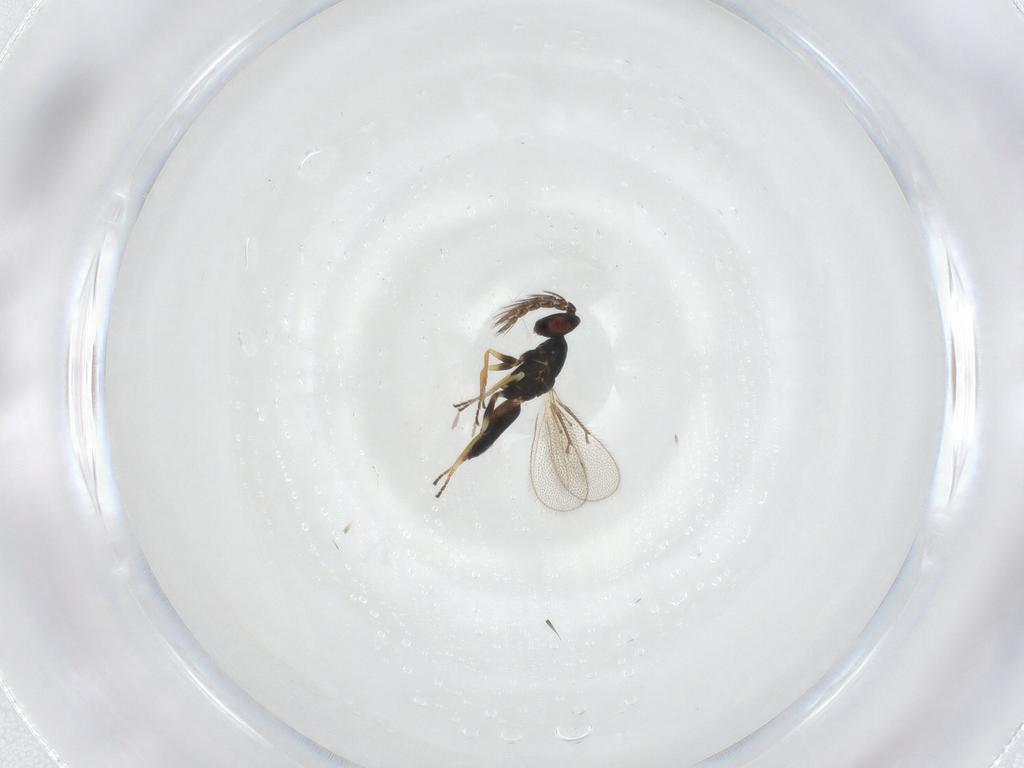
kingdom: Animalia
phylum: Arthropoda
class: Insecta
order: Hymenoptera
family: Eulophidae
